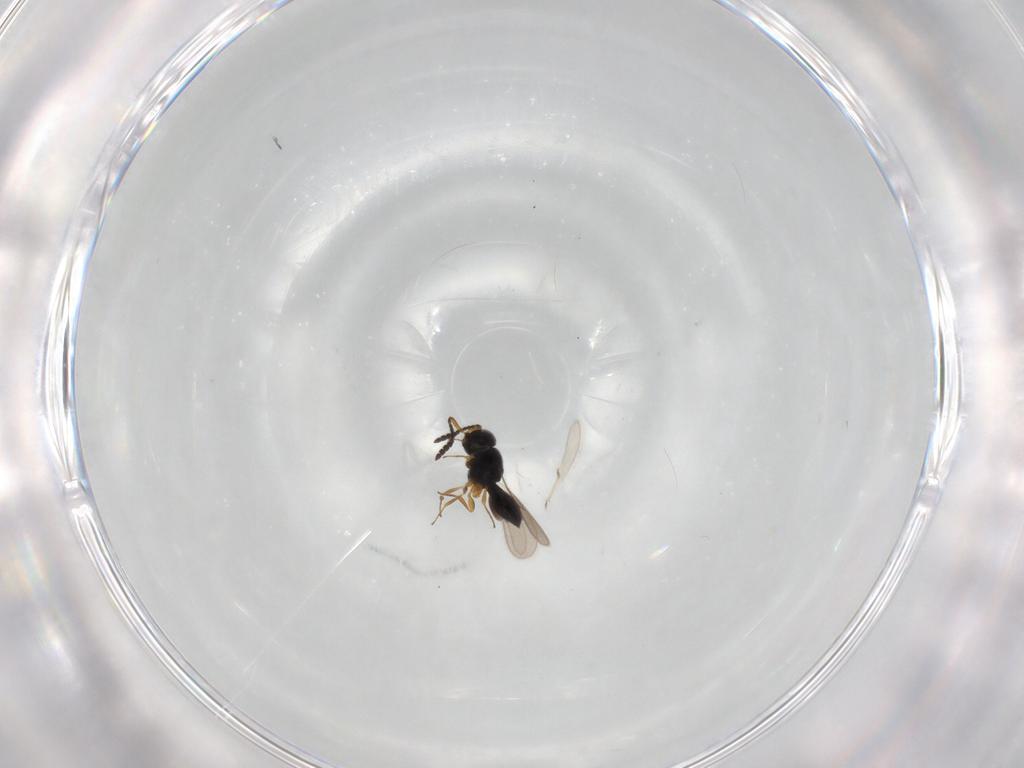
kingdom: Animalia
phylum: Arthropoda
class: Insecta
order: Hymenoptera
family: Scelionidae
